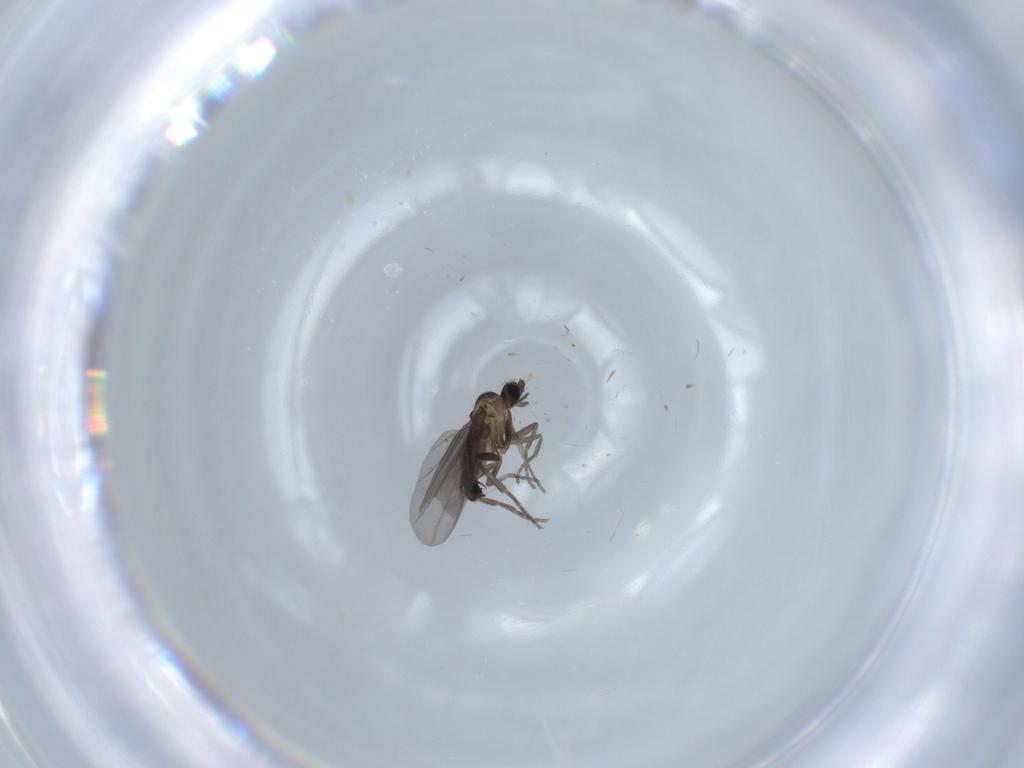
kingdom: Animalia
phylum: Arthropoda
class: Insecta
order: Diptera
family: Phoridae
